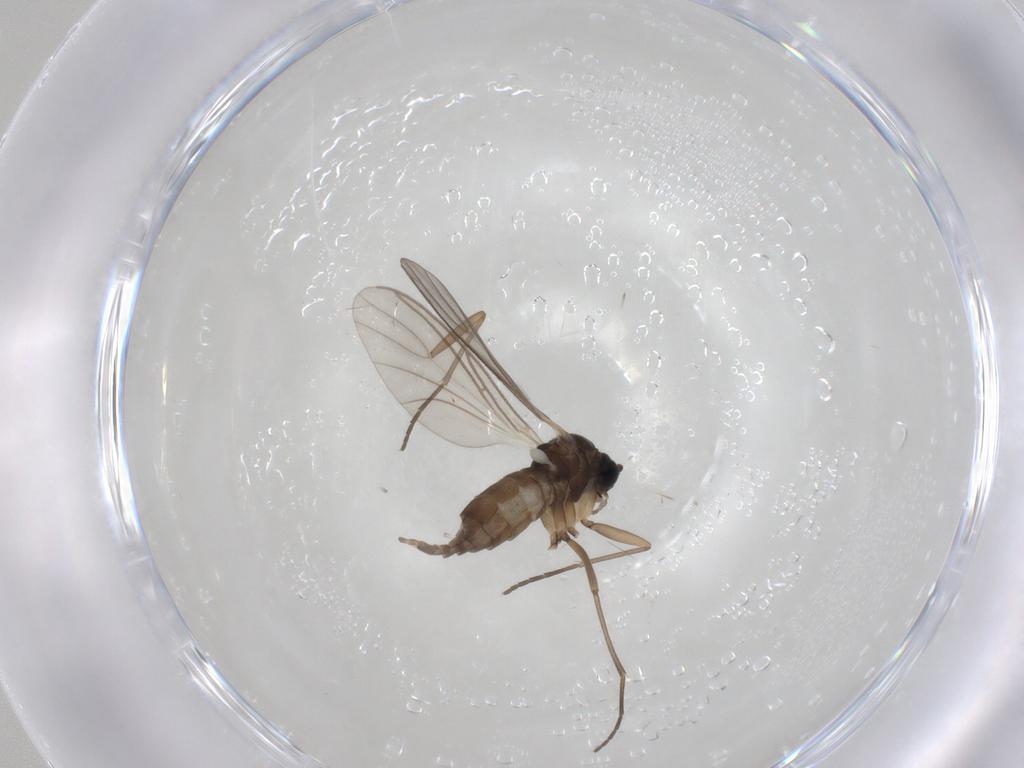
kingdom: Animalia
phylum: Arthropoda
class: Insecta
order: Diptera
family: Sciaridae
